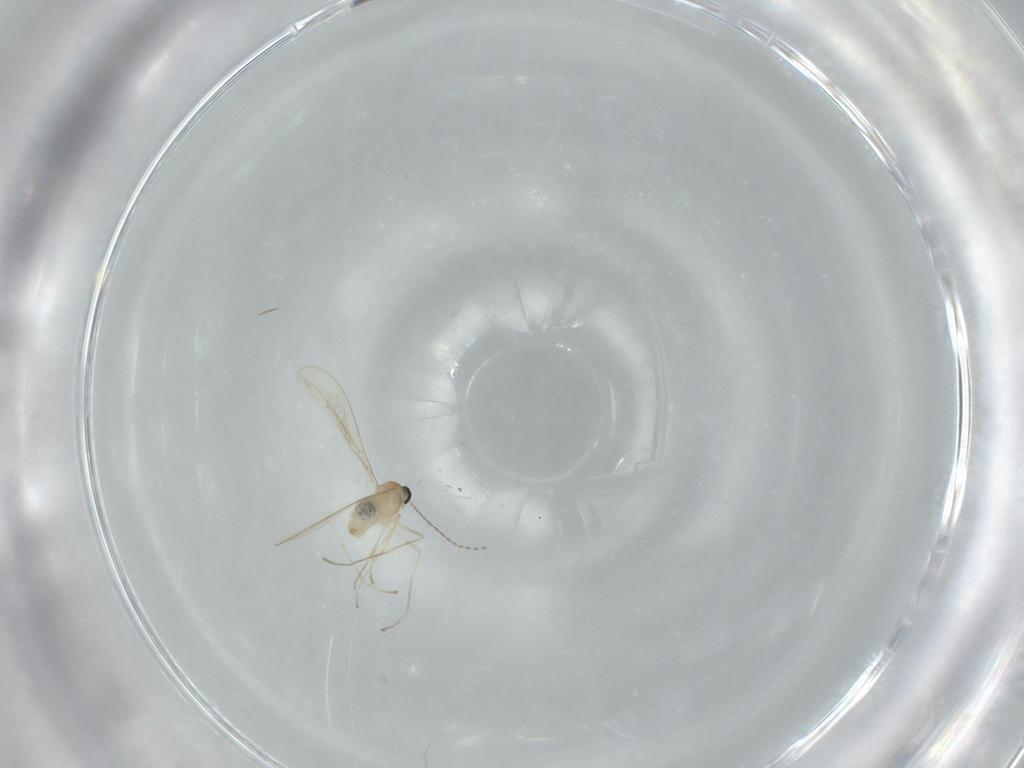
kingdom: Animalia
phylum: Arthropoda
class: Insecta
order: Diptera
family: Cecidomyiidae
